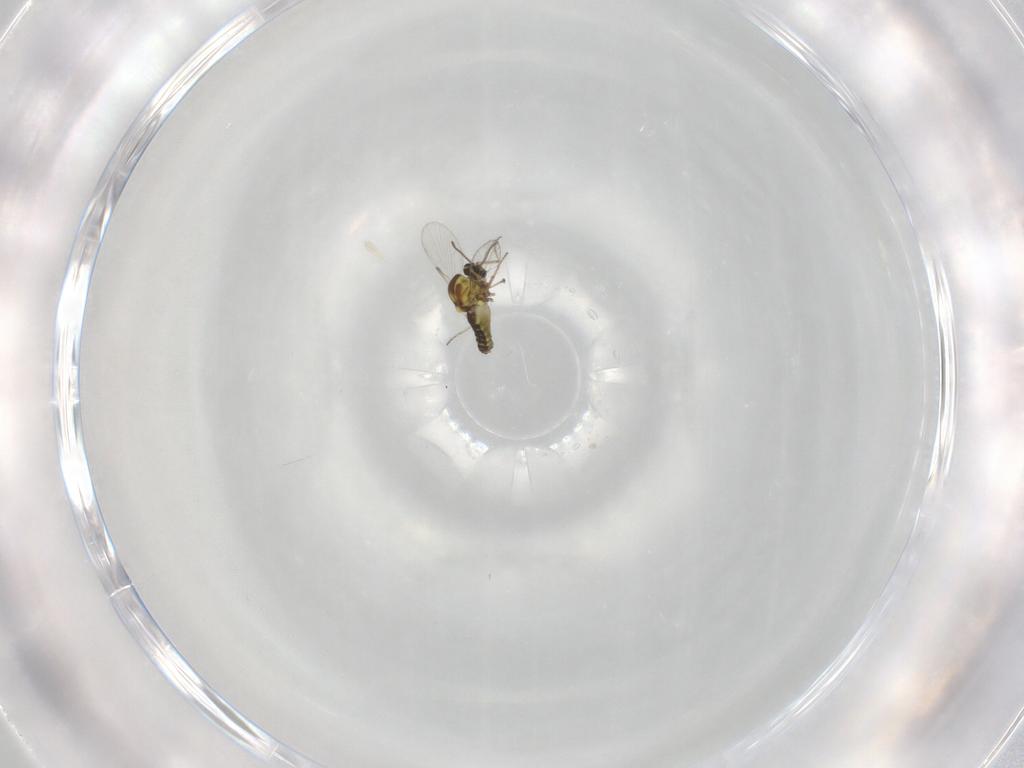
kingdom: Animalia
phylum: Arthropoda
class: Insecta
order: Diptera
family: Ceratopogonidae
